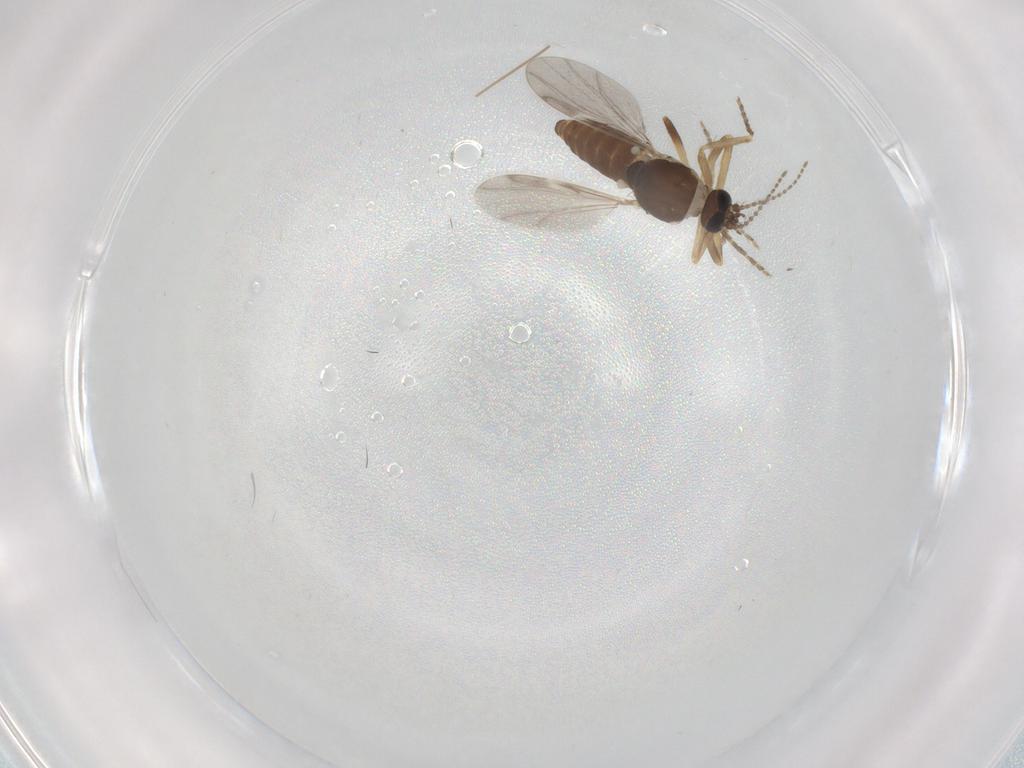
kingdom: Animalia
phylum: Arthropoda
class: Insecta
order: Diptera
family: Ceratopogonidae
